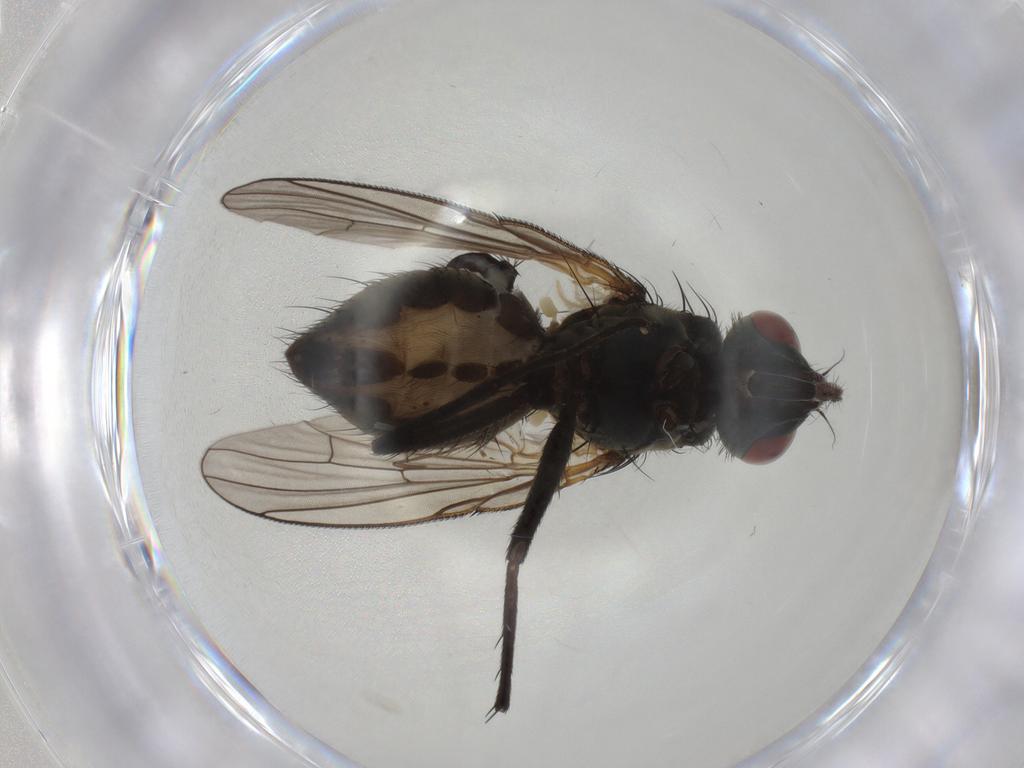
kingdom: Animalia
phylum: Arthropoda
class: Insecta
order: Diptera
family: Muscidae
